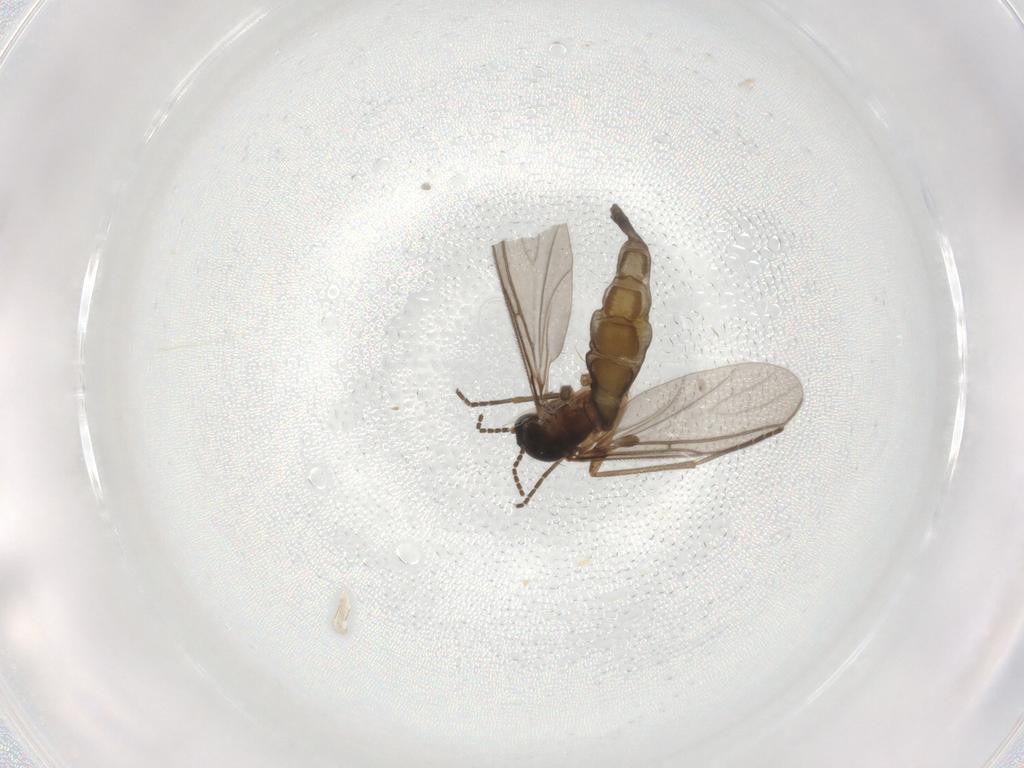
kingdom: Animalia
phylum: Arthropoda
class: Insecta
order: Diptera
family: Sciaridae
